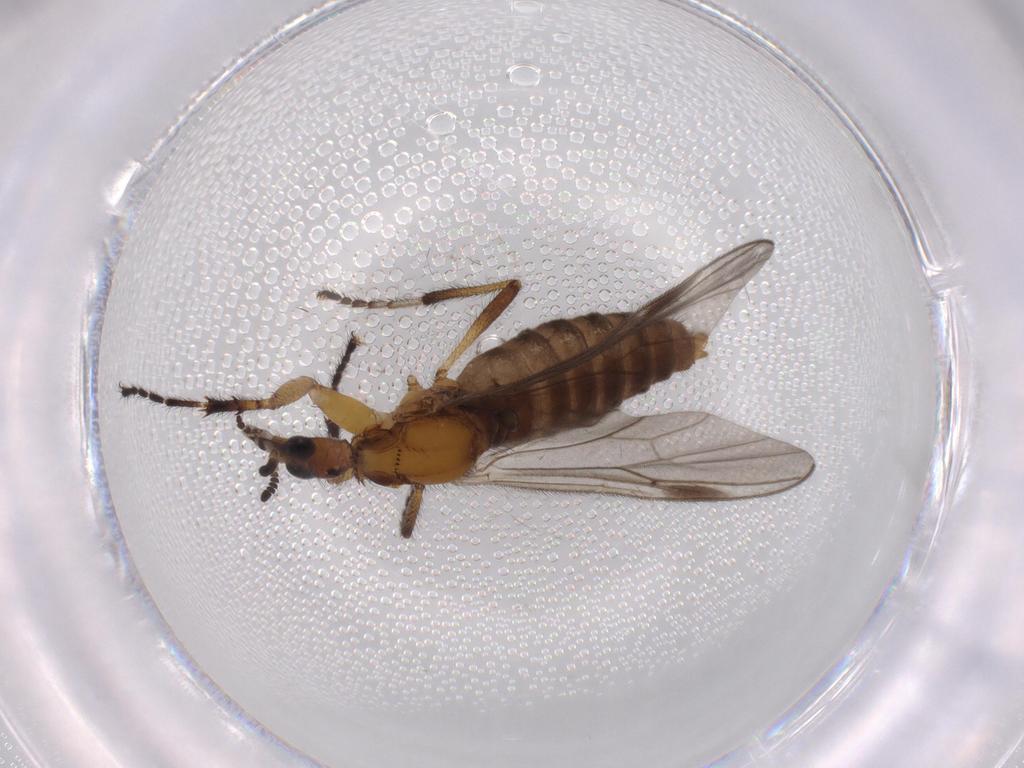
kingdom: Animalia
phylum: Arthropoda
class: Insecta
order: Diptera
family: Bibionidae
